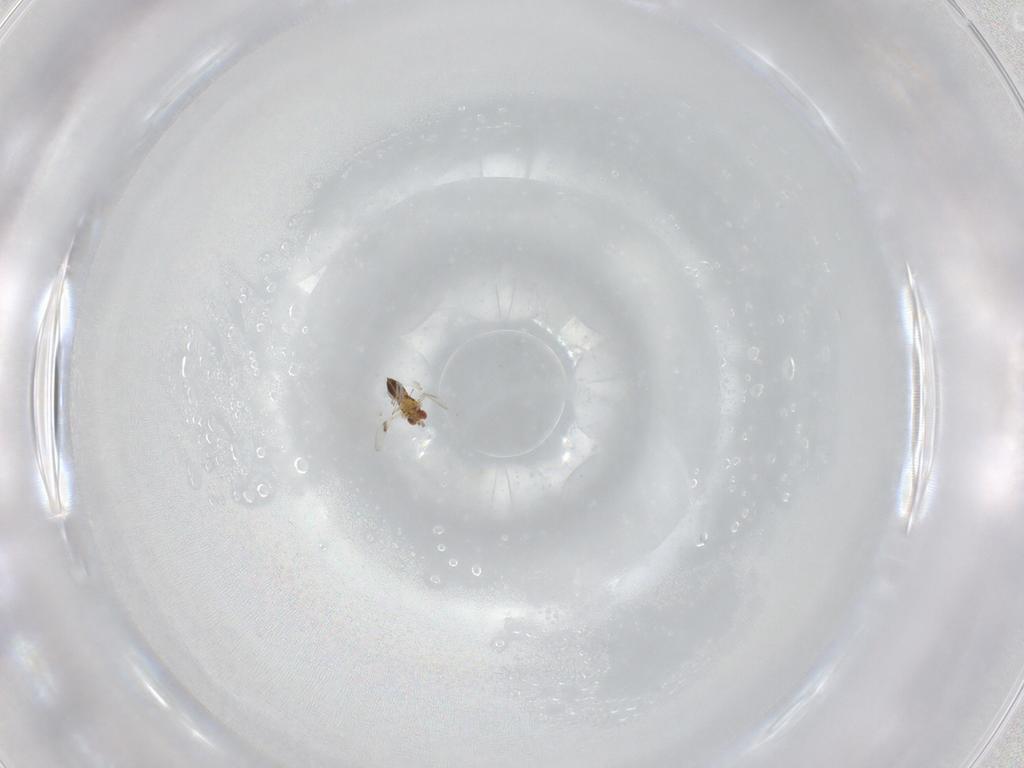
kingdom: Animalia
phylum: Arthropoda
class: Insecta
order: Hymenoptera
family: Trichogrammatidae
